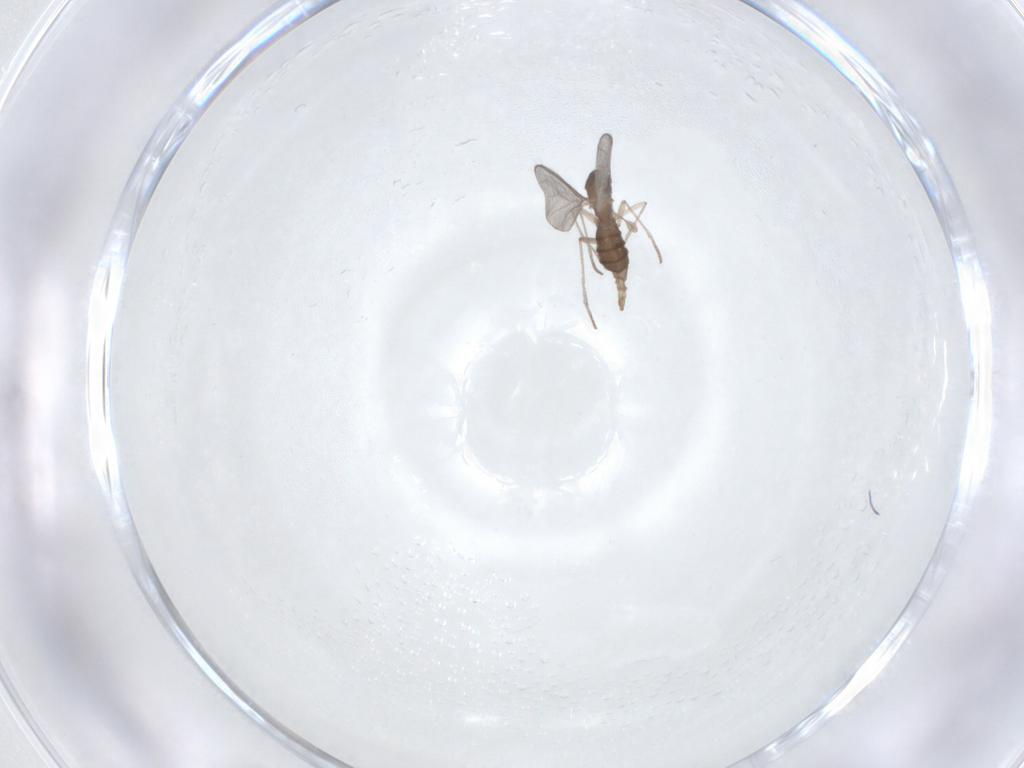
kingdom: Animalia
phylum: Arthropoda
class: Insecta
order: Diptera
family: Sciaridae
